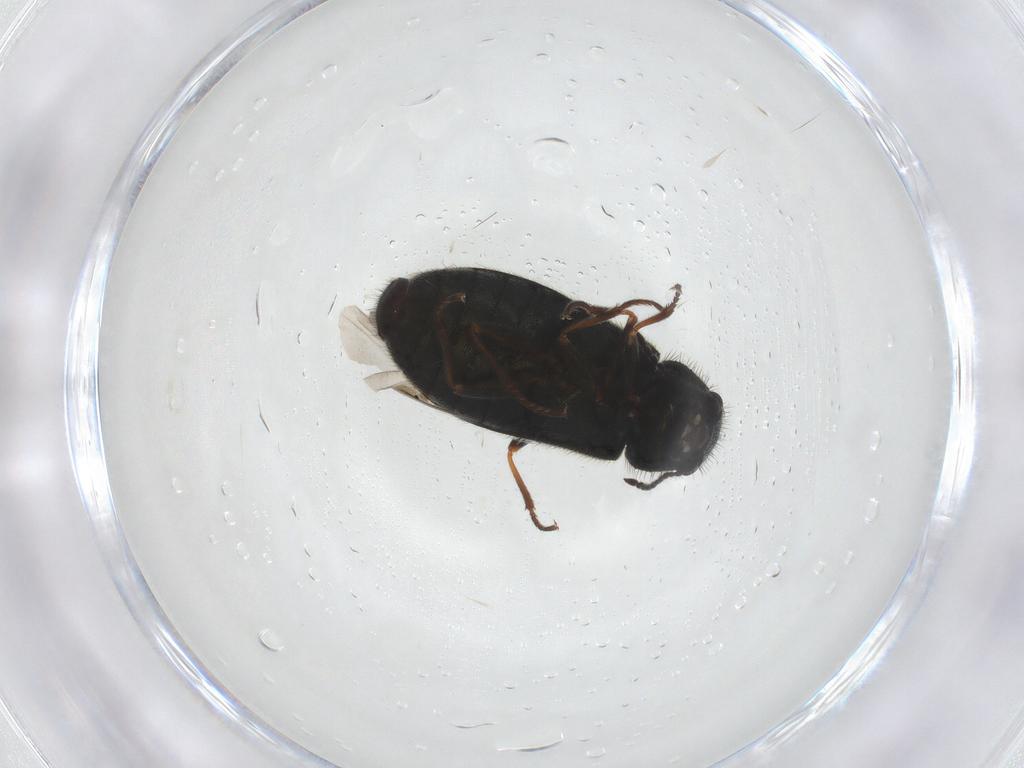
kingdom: Animalia
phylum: Arthropoda
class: Insecta
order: Coleoptera
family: Melyridae
